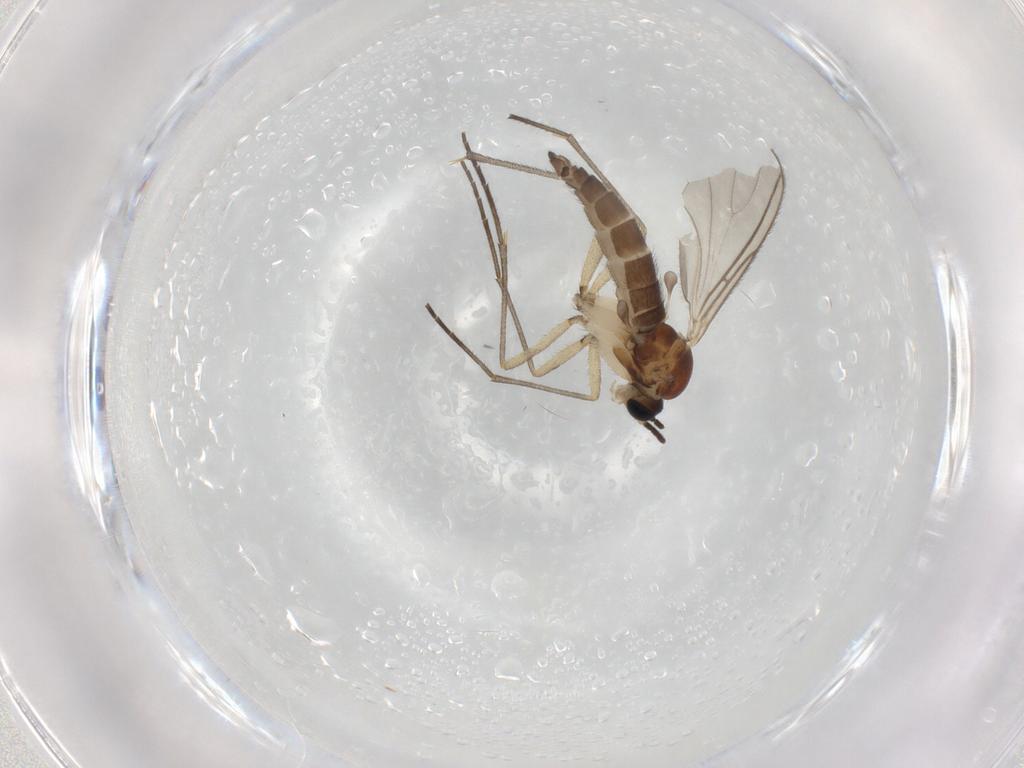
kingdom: Animalia
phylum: Arthropoda
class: Insecta
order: Diptera
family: Sciaridae
